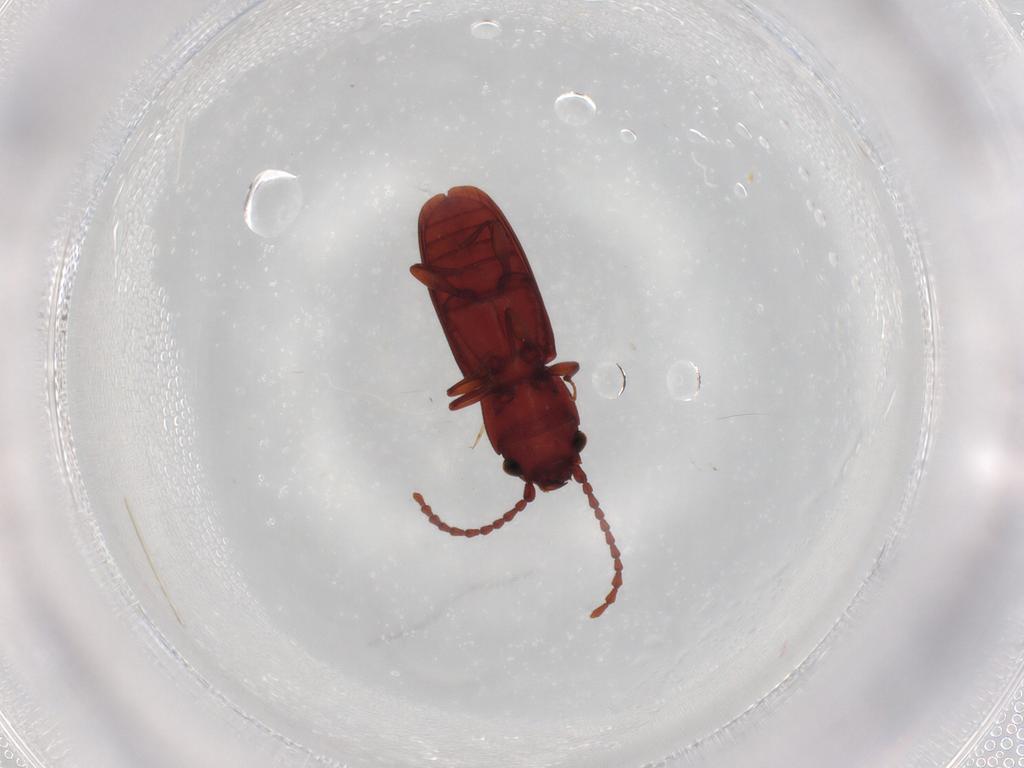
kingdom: Animalia
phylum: Arthropoda
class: Insecta
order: Coleoptera
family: Laemophloeidae
